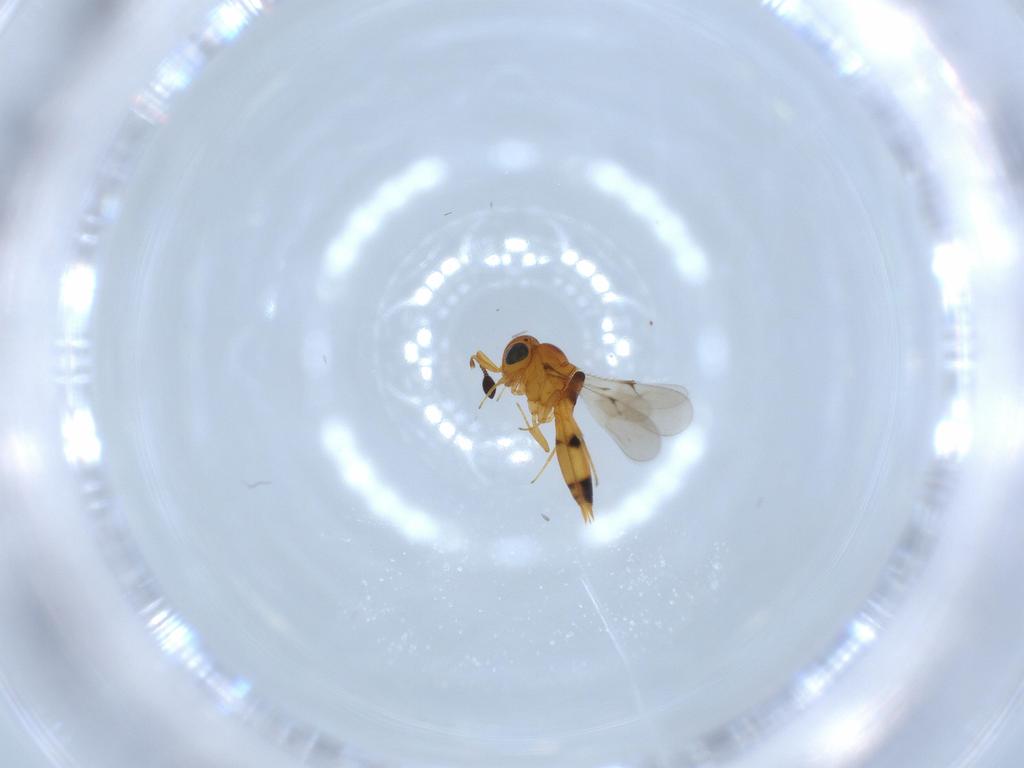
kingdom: Animalia
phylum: Arthropoda
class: Insecta
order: Hymenoptera
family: Scelionidae
